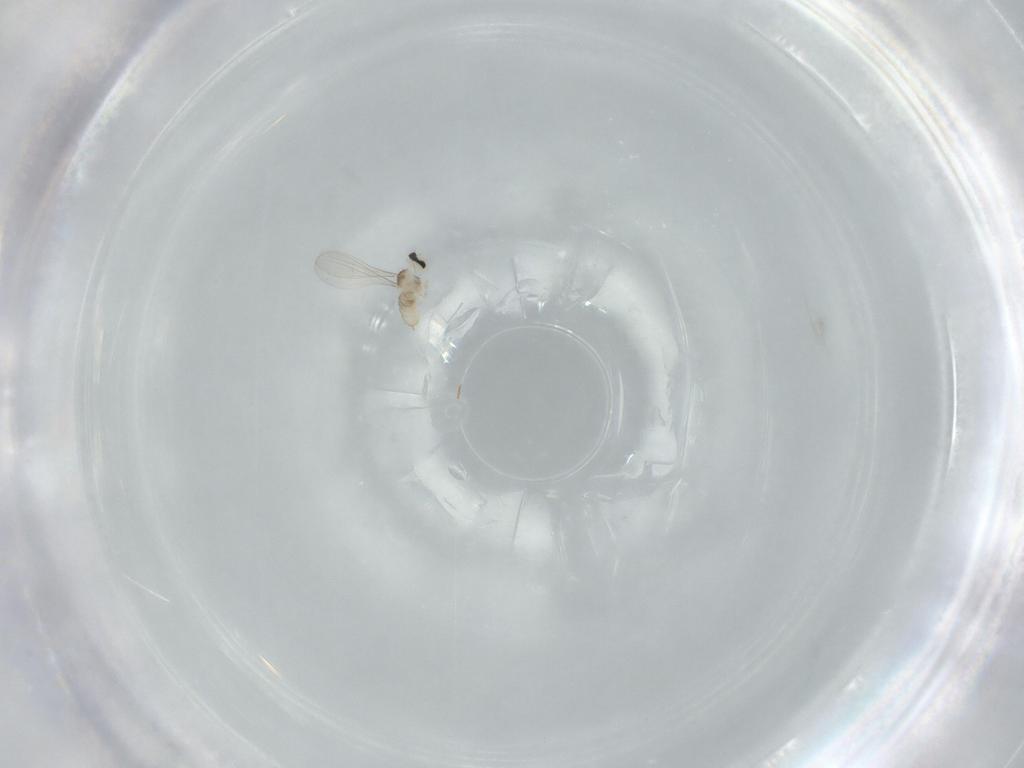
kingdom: Animalia
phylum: Arthropoda
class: Insecta
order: Diptera
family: Cecidomyiidae
